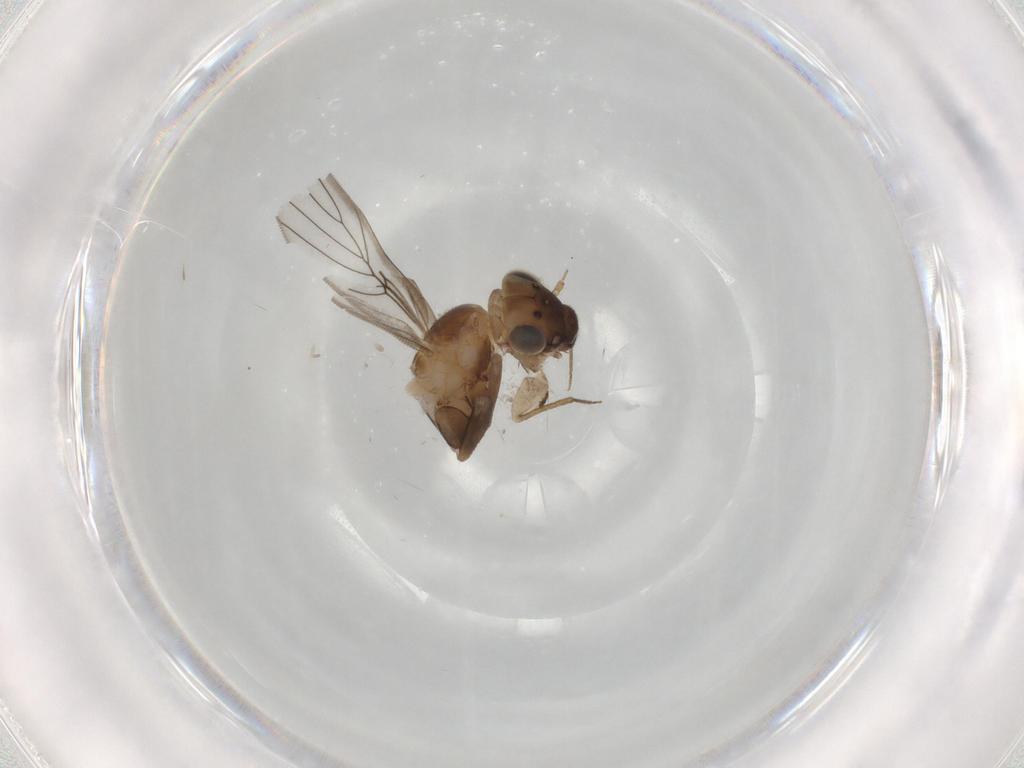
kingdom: Animalia
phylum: Arthropoda
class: Insecta
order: Psocodea
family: Lepidopsocidae
